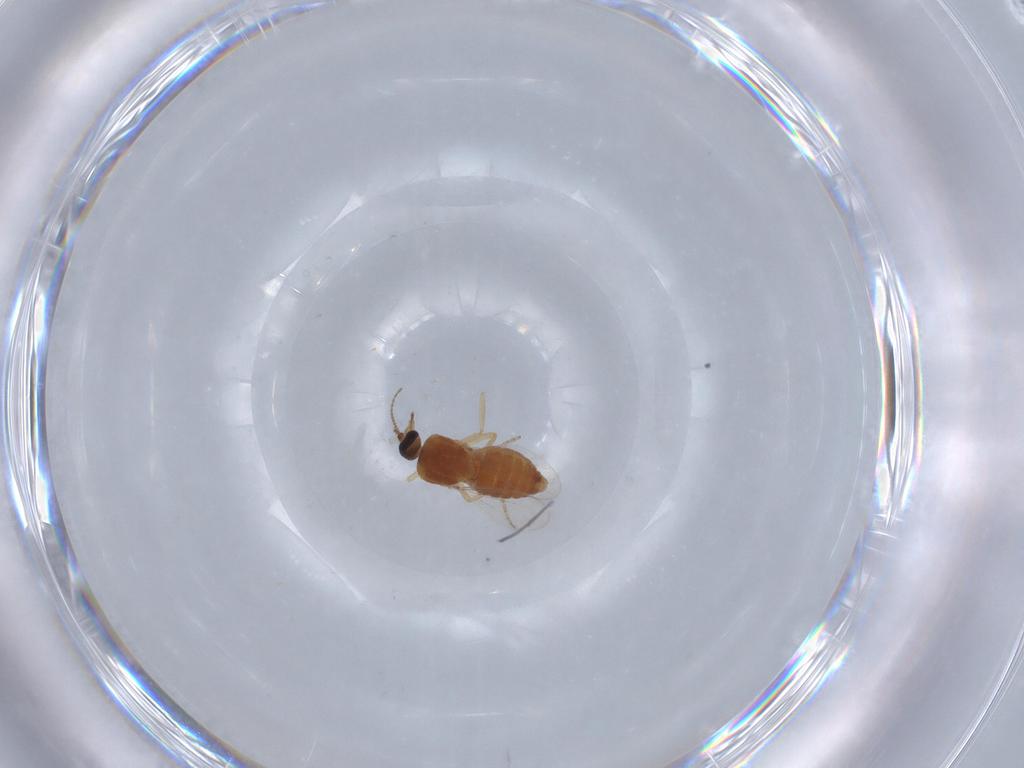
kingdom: Animalia
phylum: Arthropoda
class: Insecta
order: Diptera
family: Ceratopogonidae
